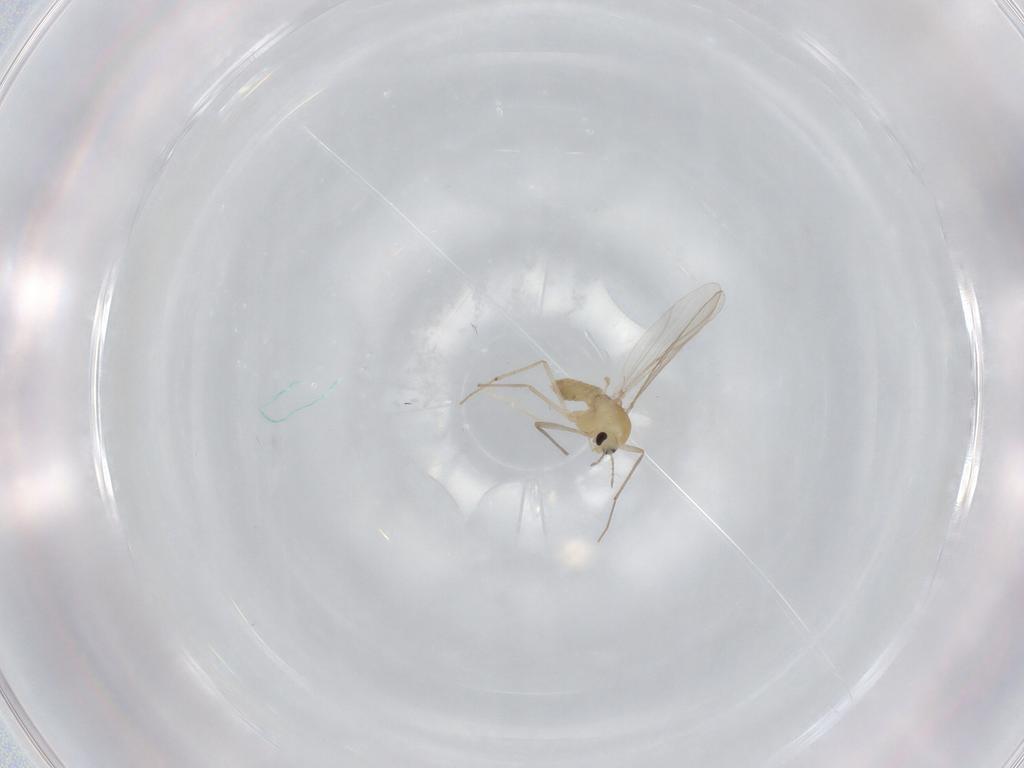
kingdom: Animalia
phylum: Arthropoda
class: Insecta
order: Diptera
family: Chironomidae
